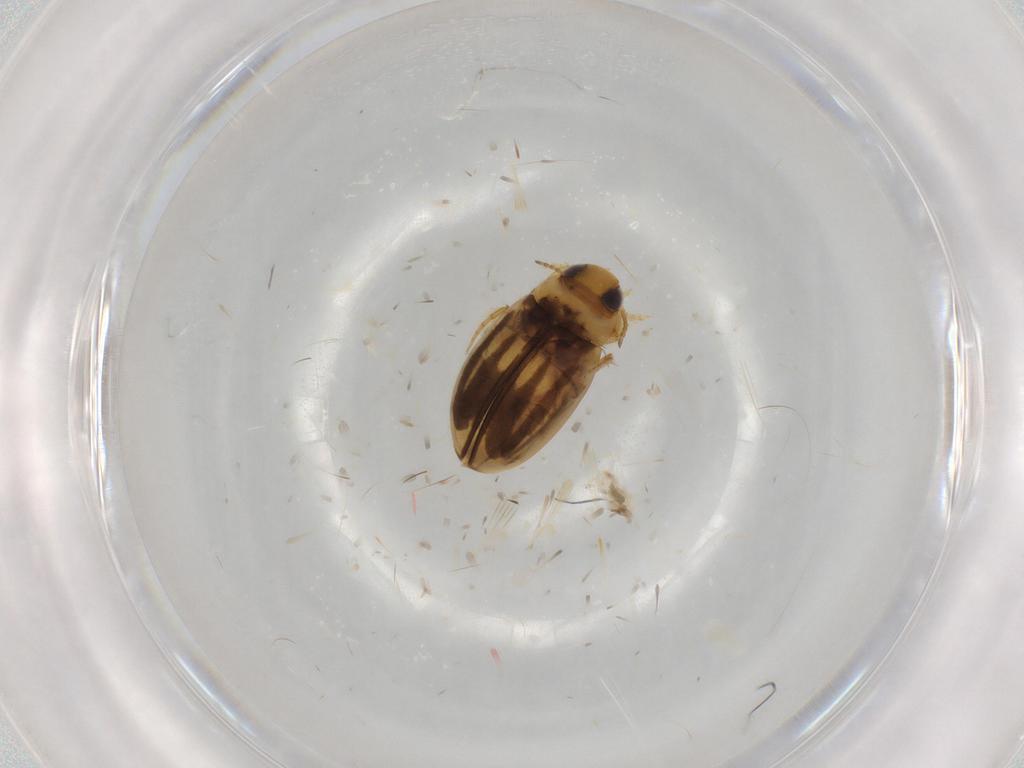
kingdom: Animalia
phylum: Arthropoda
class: Insecta
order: Coleoptera
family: Dytiscidae
